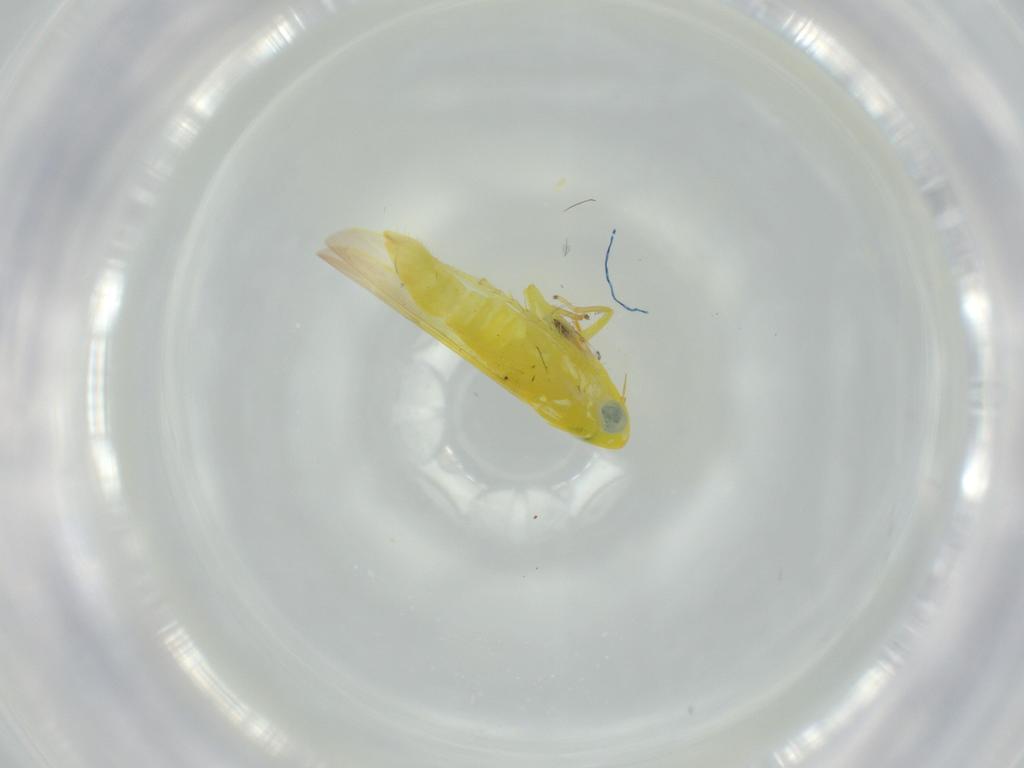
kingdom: Animalia
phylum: Arthropoda
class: Insecta
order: Hemiptera
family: Cicadellidae
